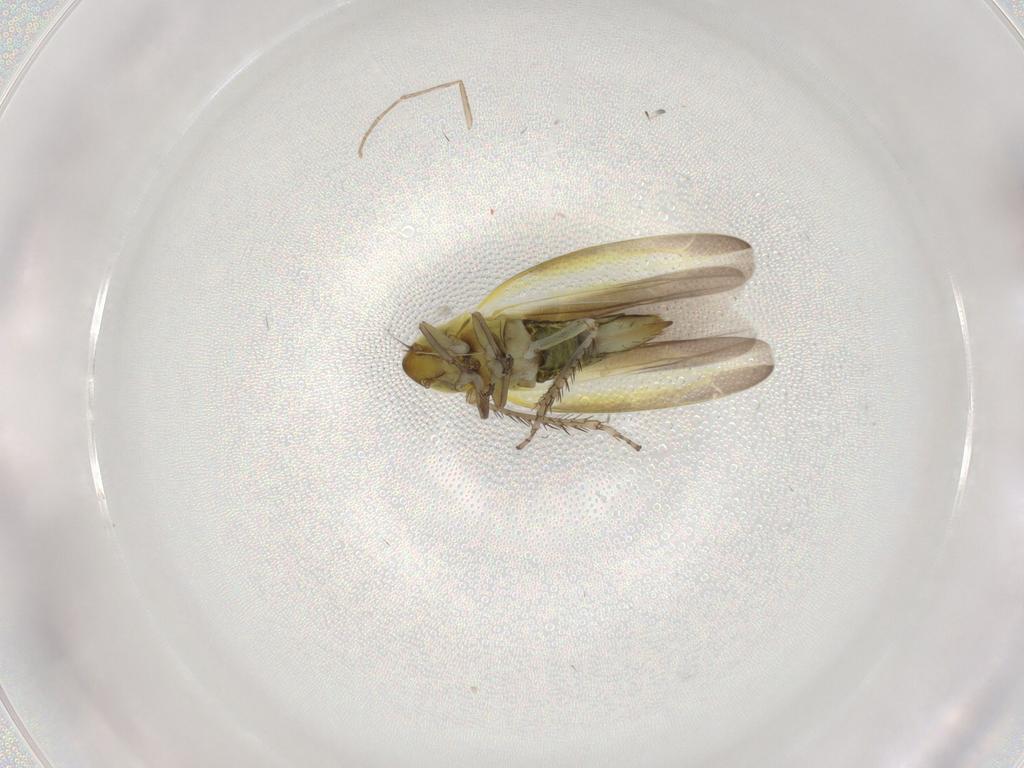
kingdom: Animalia
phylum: Arthropoda
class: Insecta
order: Hemiptera
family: Cicadellidae
